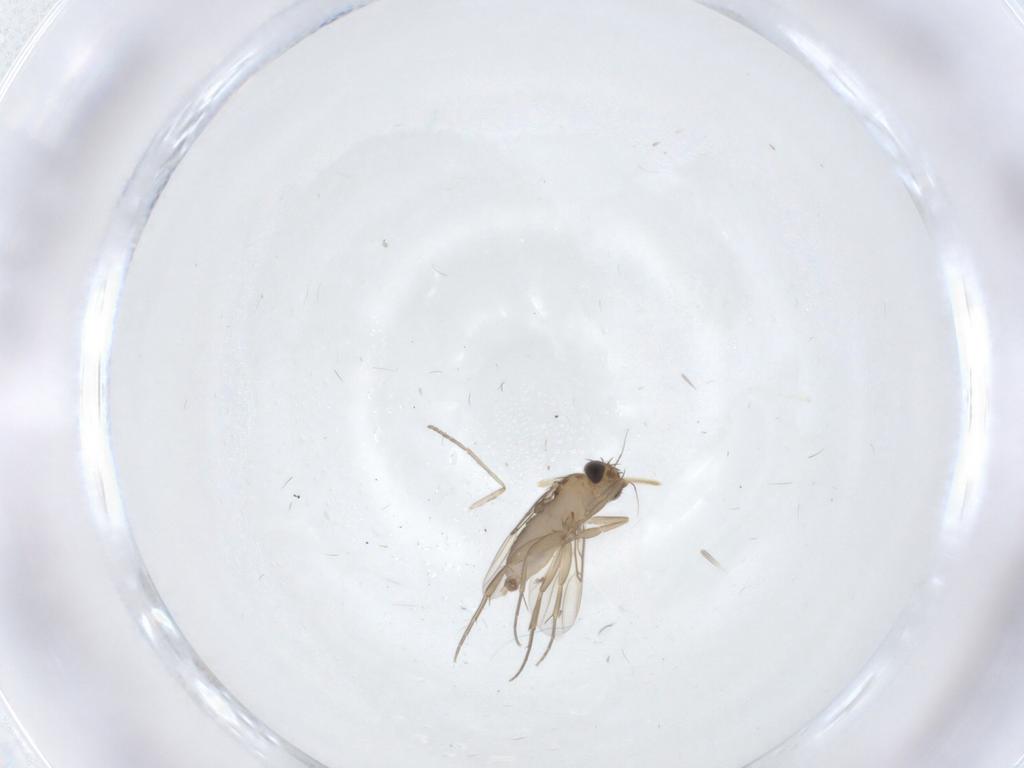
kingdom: Animalia
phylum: Arthropoda
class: Insecta
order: Diptera
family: Phoridae
